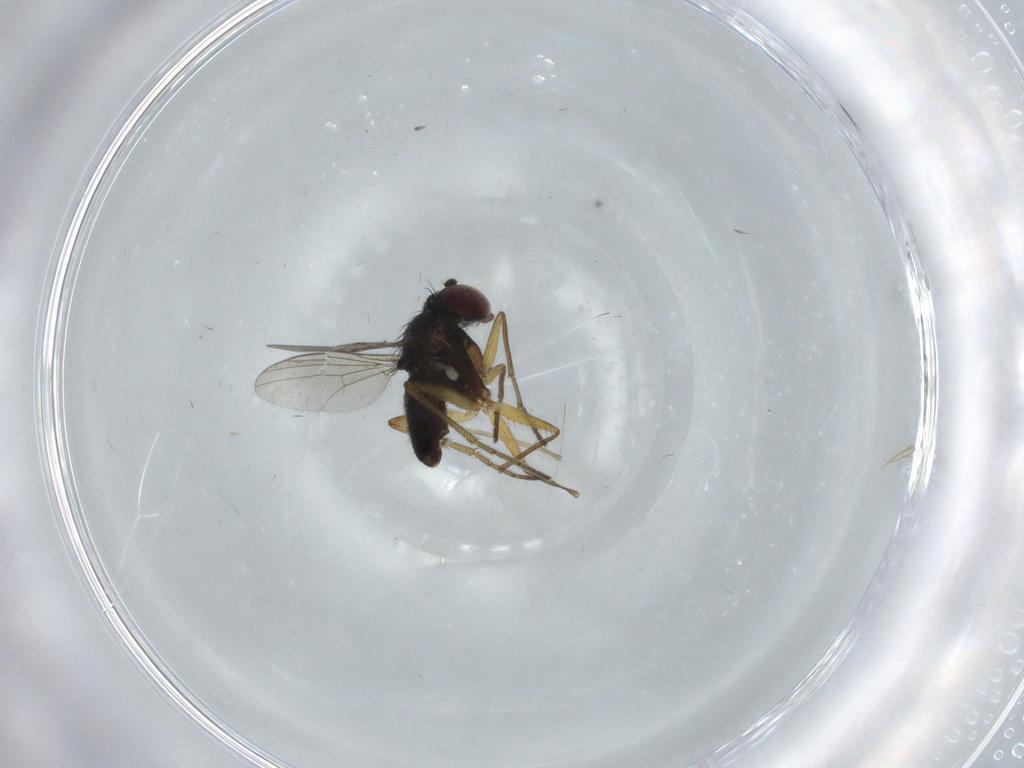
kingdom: Animalia
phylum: Arthropoda
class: Insecta
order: Diptera
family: Dolichopodidae
